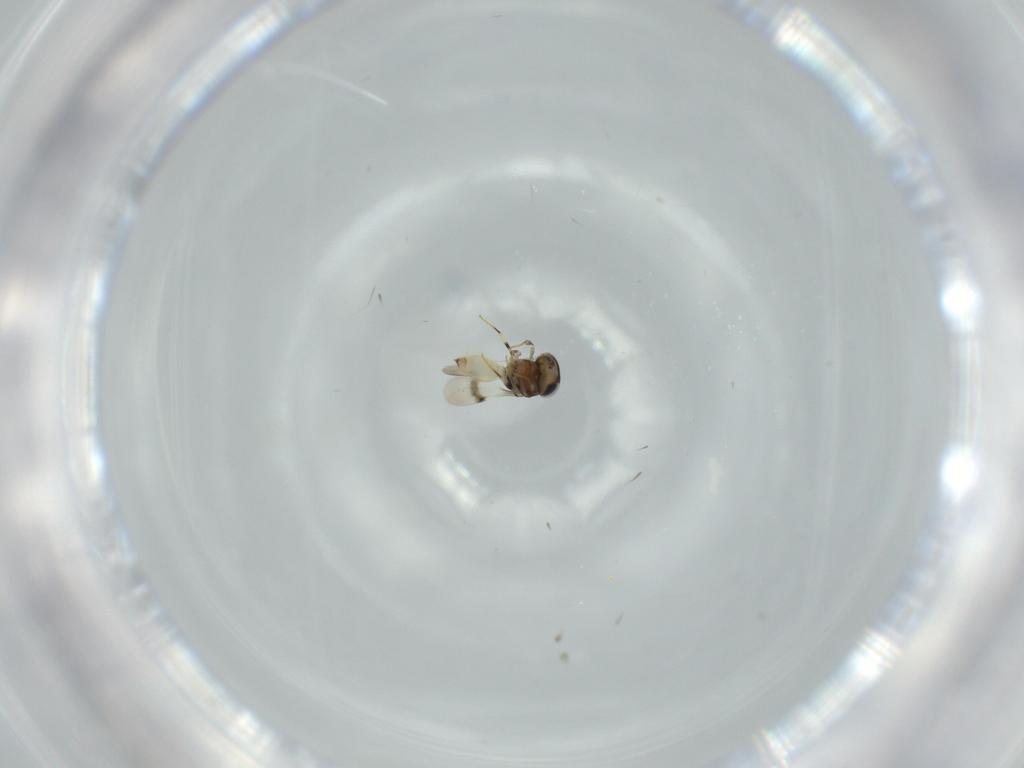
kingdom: Animalia
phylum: Arthropoda
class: Insecta
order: Hymenoptera
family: Scelionidae
